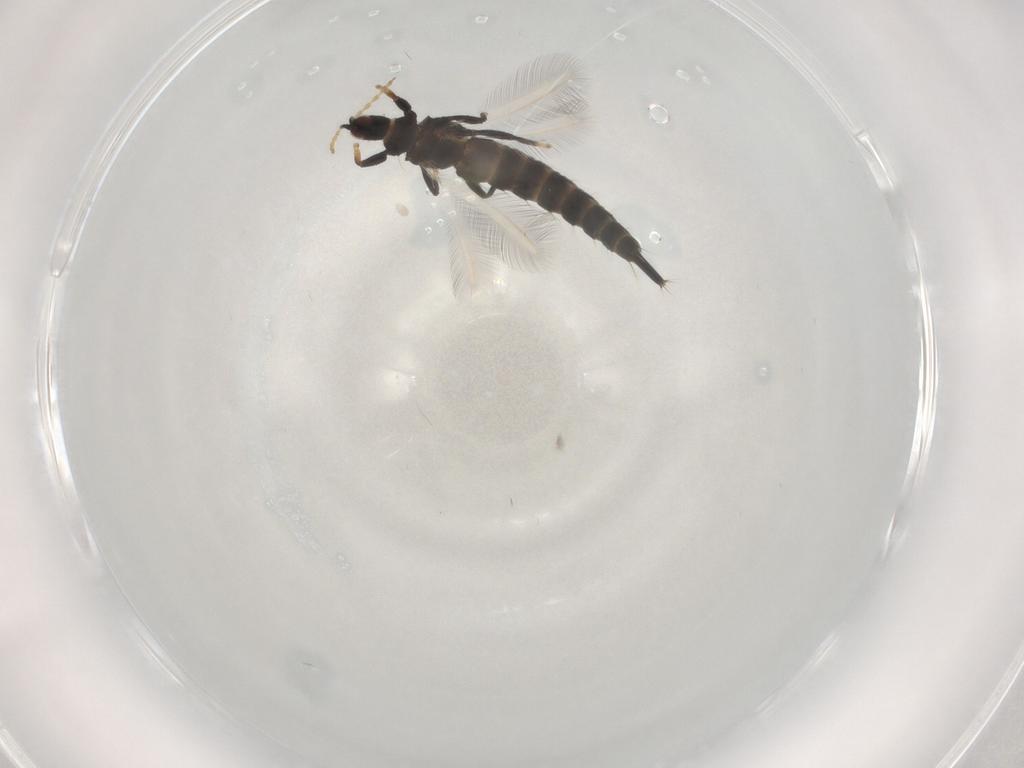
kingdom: Animalia
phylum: Arthropoda
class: Insecta
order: Thysanoptera
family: Phlaeothripidae
